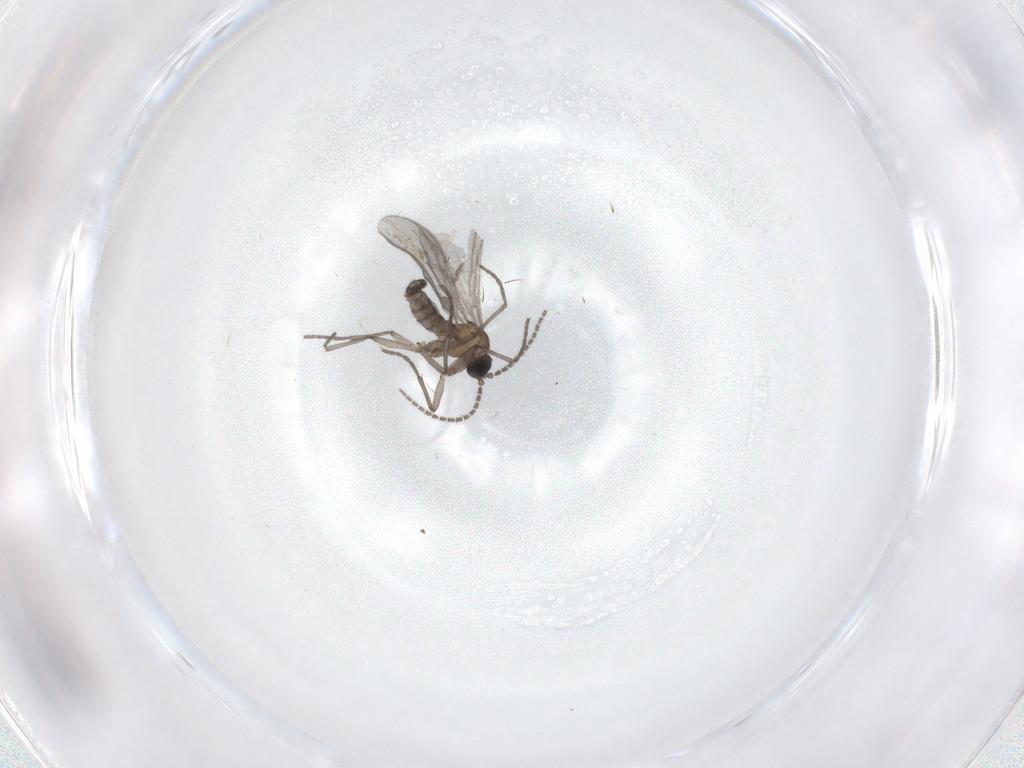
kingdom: Animalia
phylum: Arthropoda
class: Insecta
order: Diptera
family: Sciaridae
